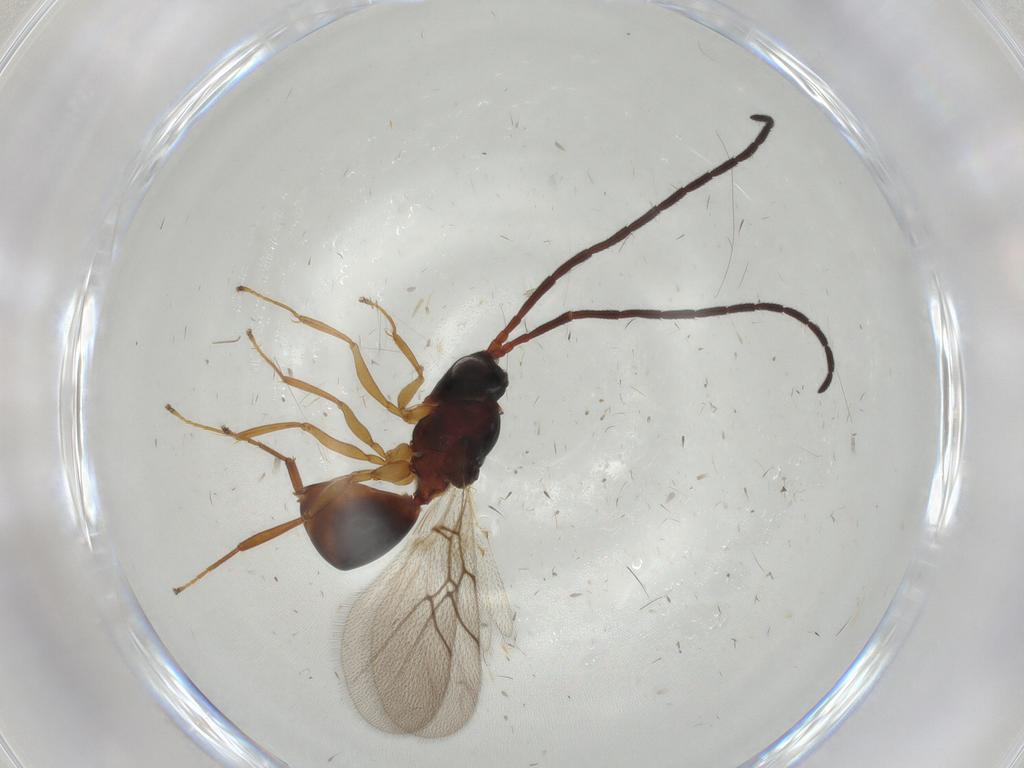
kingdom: Animalia
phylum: Arthropoda
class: Insecta
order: Hymenoptera
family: Figitidae
